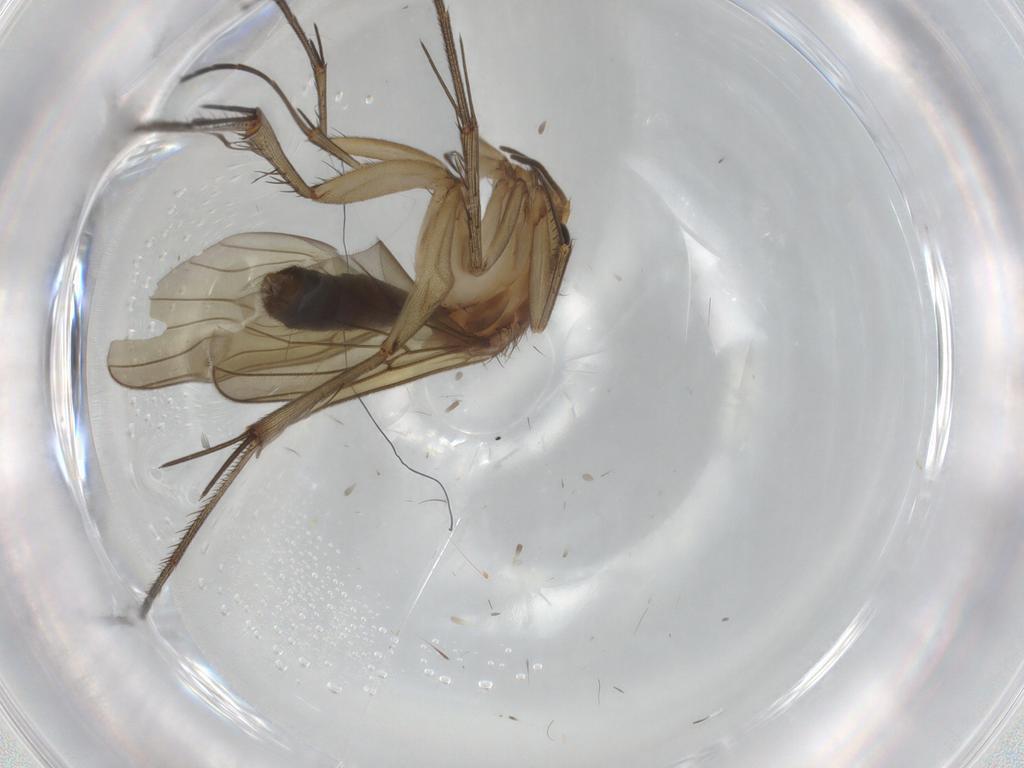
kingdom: Animalia
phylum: Arthropoda
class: Insecta
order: Diptera
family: Mycetophilidae
